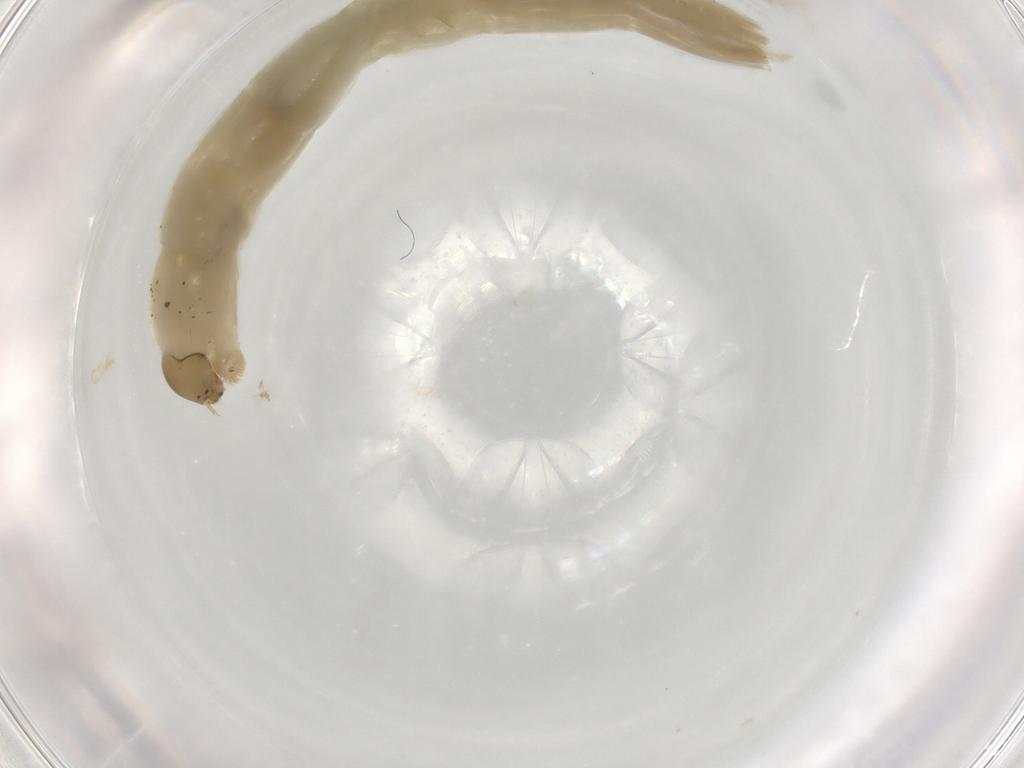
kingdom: Animalia
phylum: Arthropoda
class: Insecta
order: Diptera
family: Chironomidae
